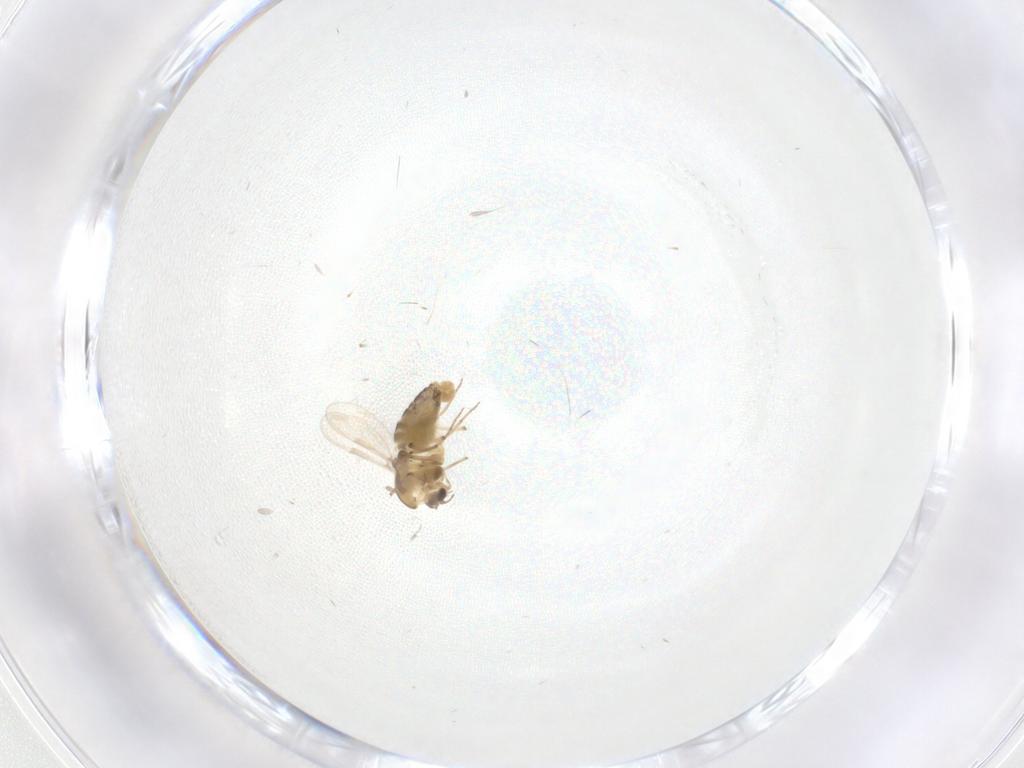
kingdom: Animalia
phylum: Arthropoda
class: Insecta
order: Diptera
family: Chironomidae
